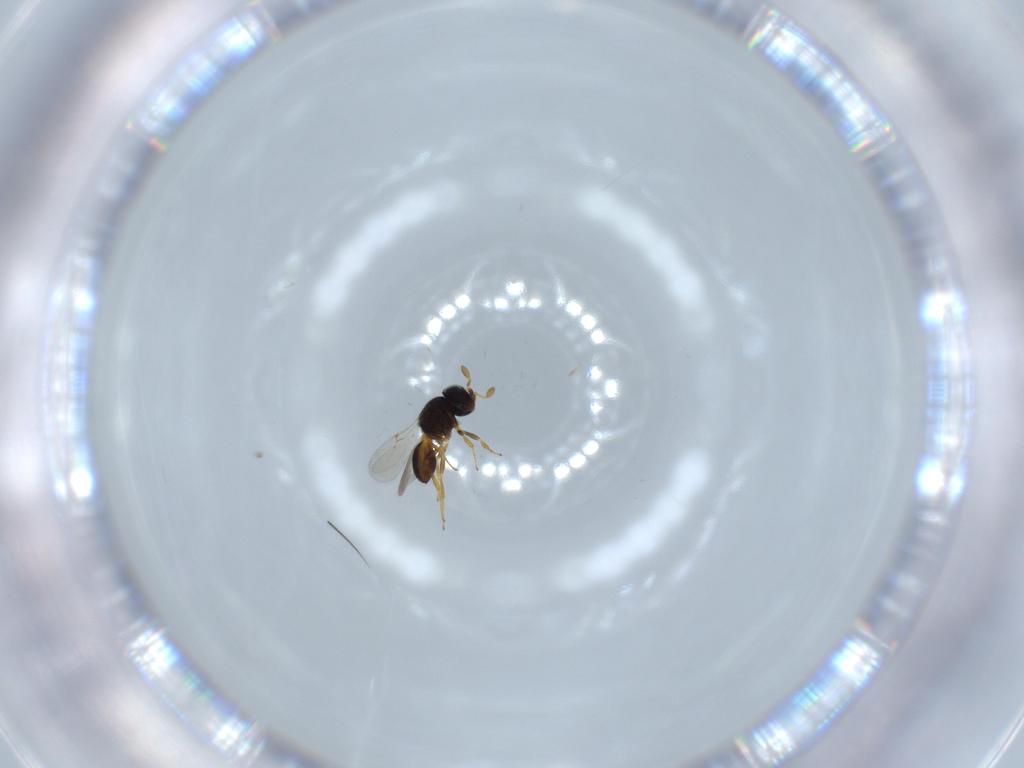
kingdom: Animalia
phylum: Arthropoda
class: Insecta
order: Hymenoptera
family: Scelionidae
